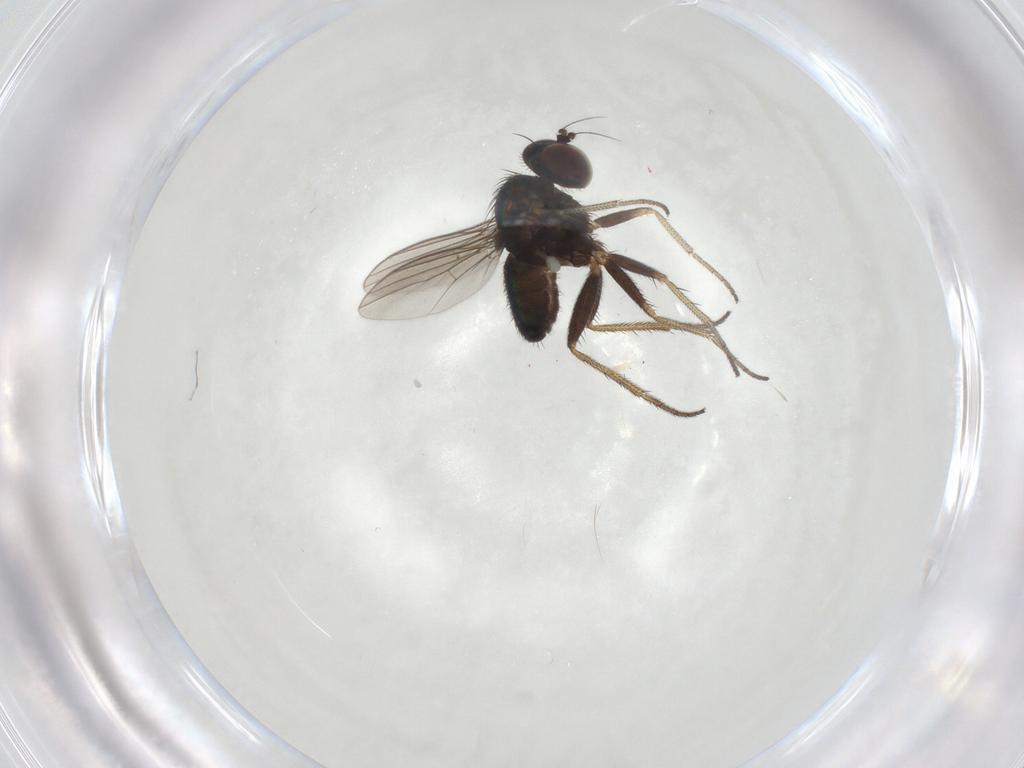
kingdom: Animalia
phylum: Arthropoda
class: Insecta
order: Diptera
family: Dolichopodidae
